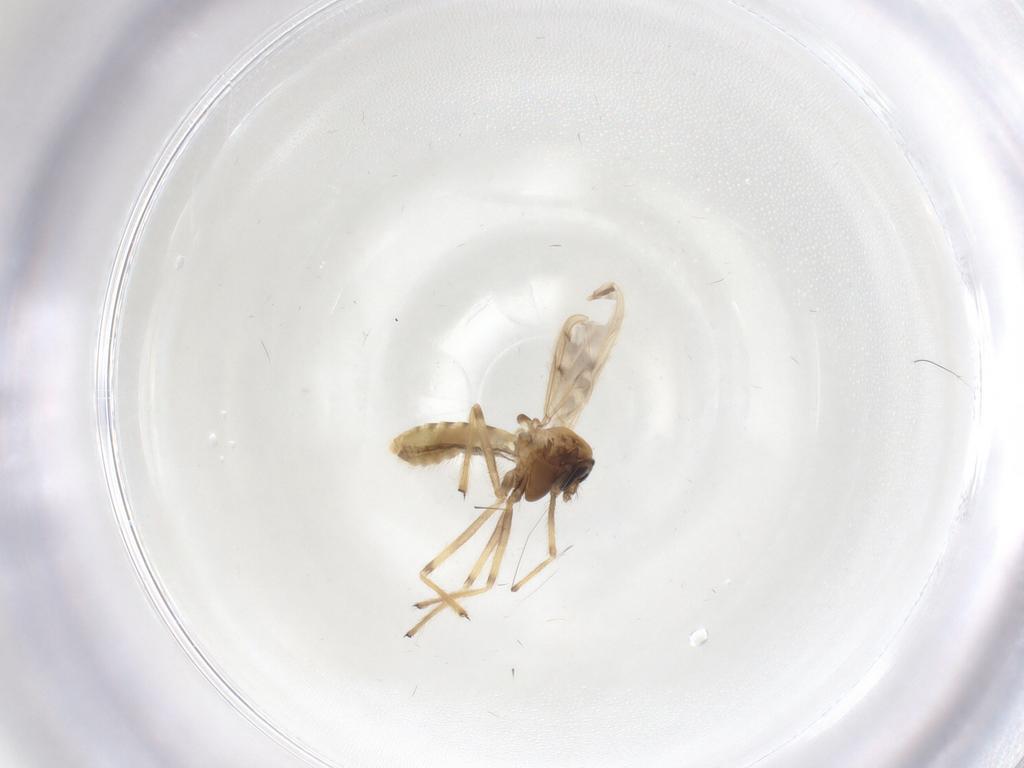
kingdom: Animalia
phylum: Arthropoda
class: Insecta
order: Diptera
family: Chironomidae
